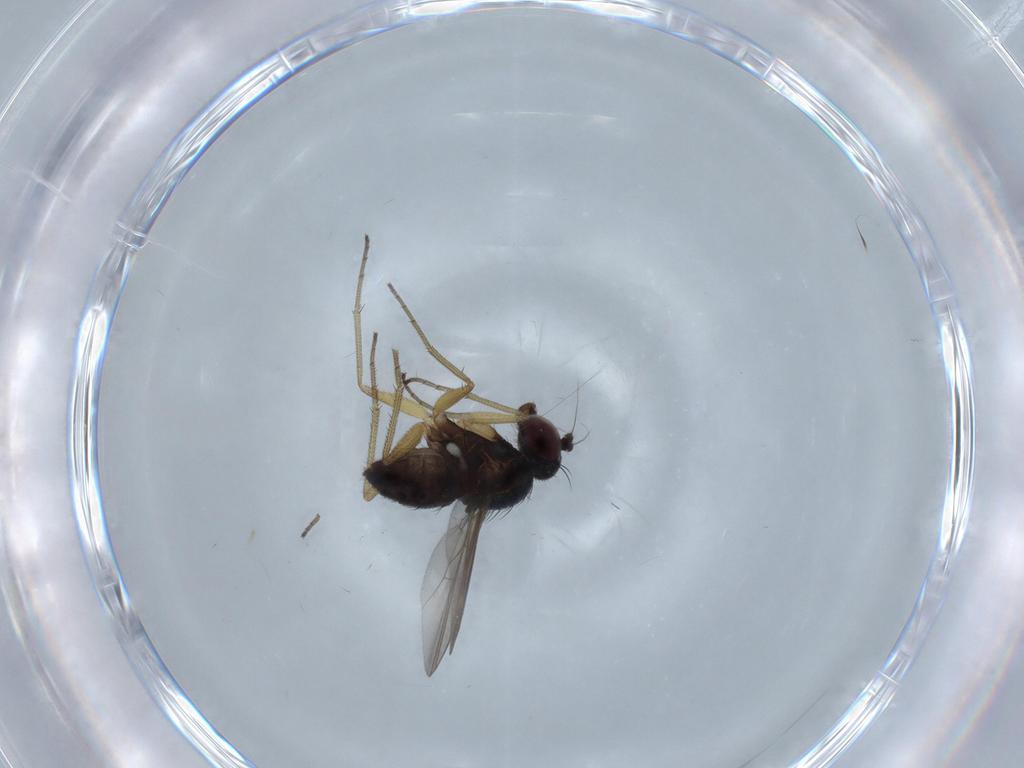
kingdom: Animalia
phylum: Arthropoda
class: Insecta
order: Diptera
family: Dolichopodidae
